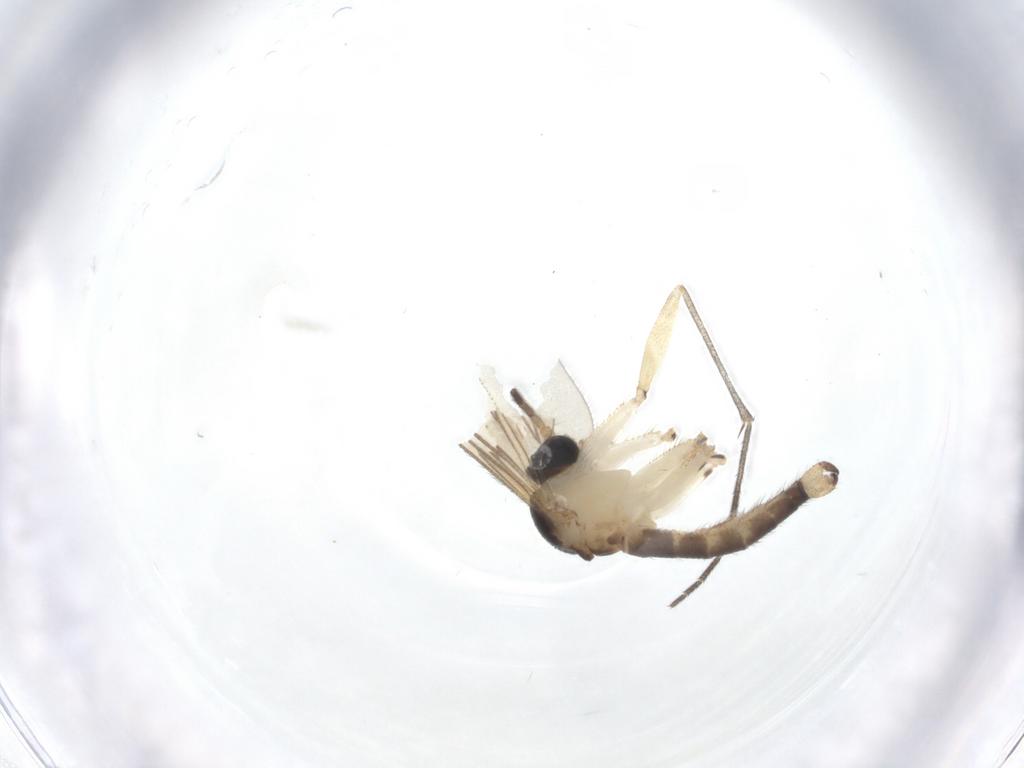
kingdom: Animalia
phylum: Arthropoda
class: Insecta
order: Diptera
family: Sciaridae
